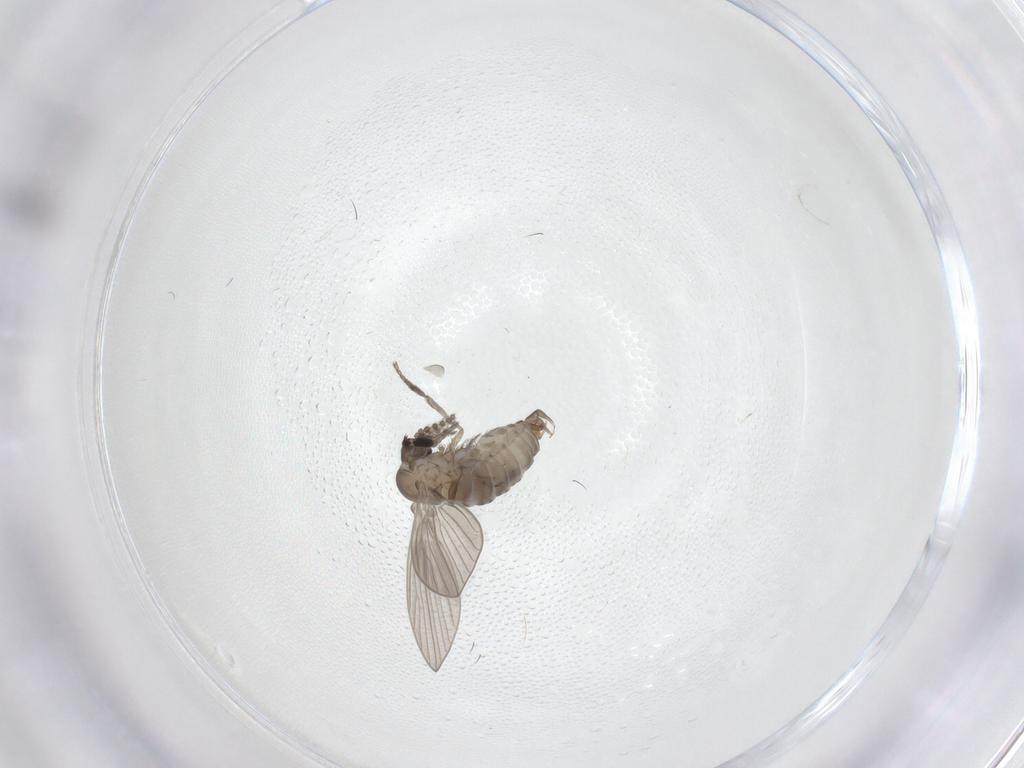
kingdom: Animalia
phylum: Arthropoda
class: Insecta
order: Diptera
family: Psychodidae
